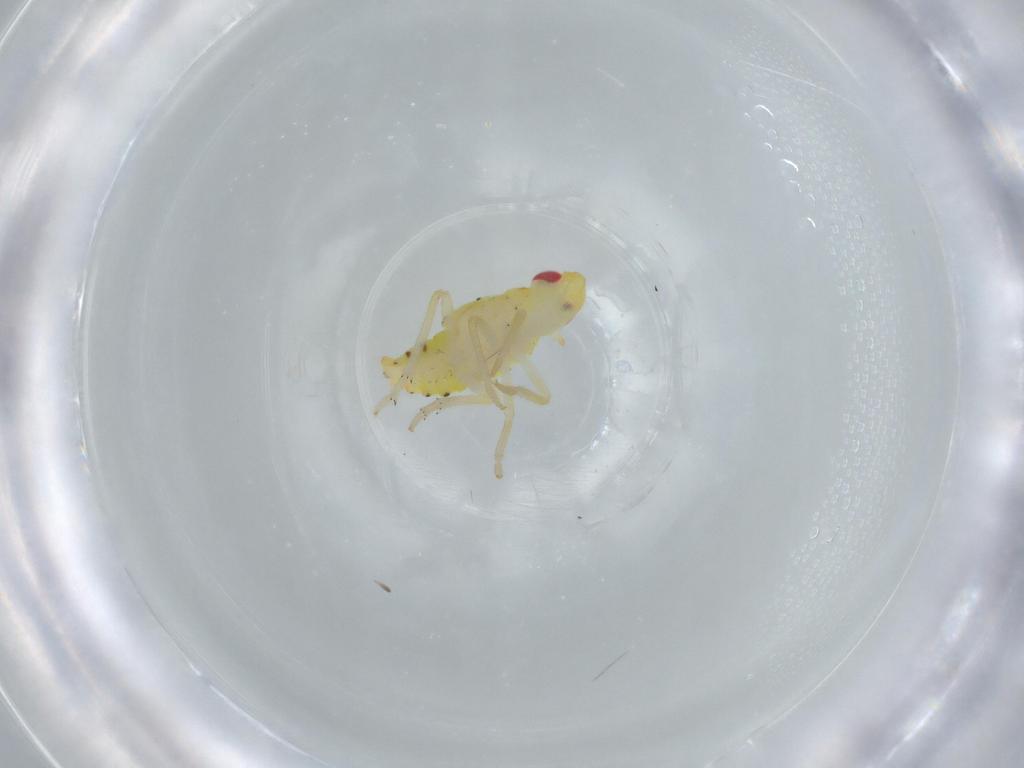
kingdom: Animalia
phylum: Arthropoda
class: Insecta
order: Hemiptera
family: Tropiduchidae
